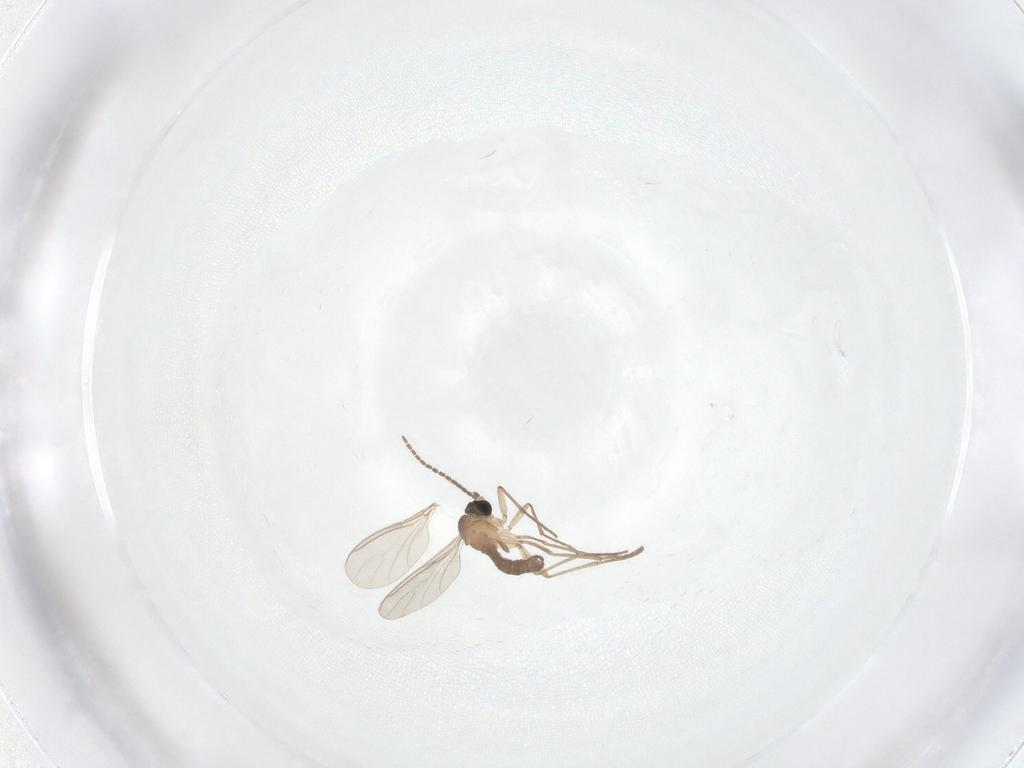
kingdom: Animalia
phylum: Arthropoda
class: Insecta
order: Diptera
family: Sciaridae
